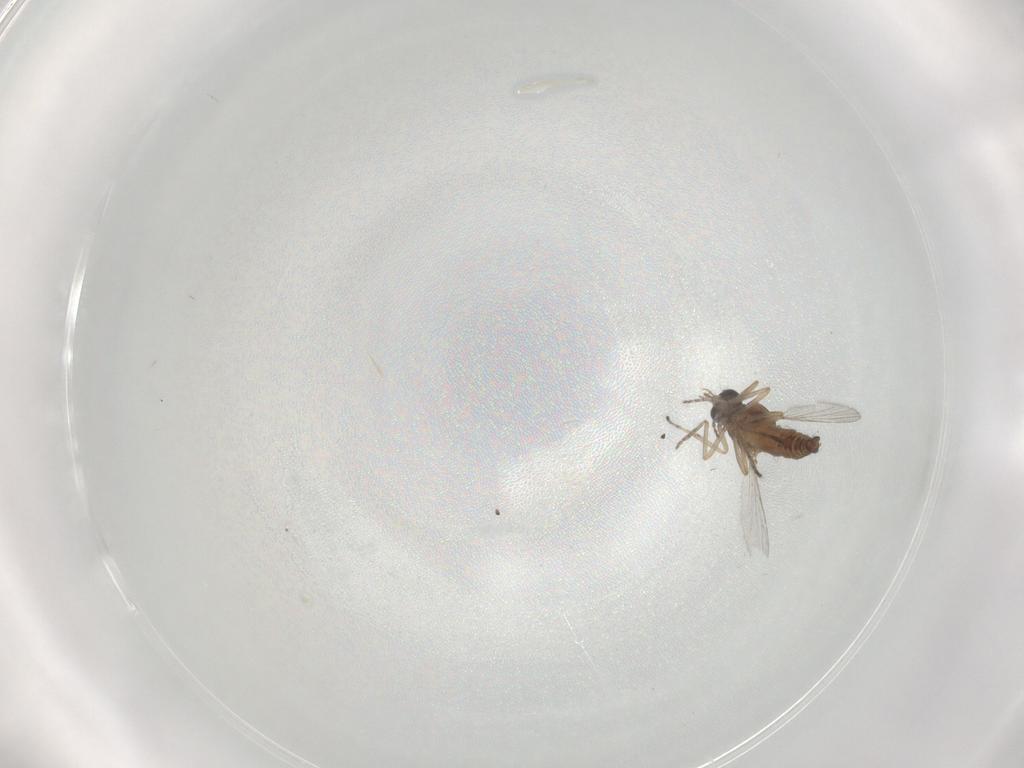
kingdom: Animalia
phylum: Arthropoda
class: Insecta
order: Diptera
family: Ceratopogonidae
